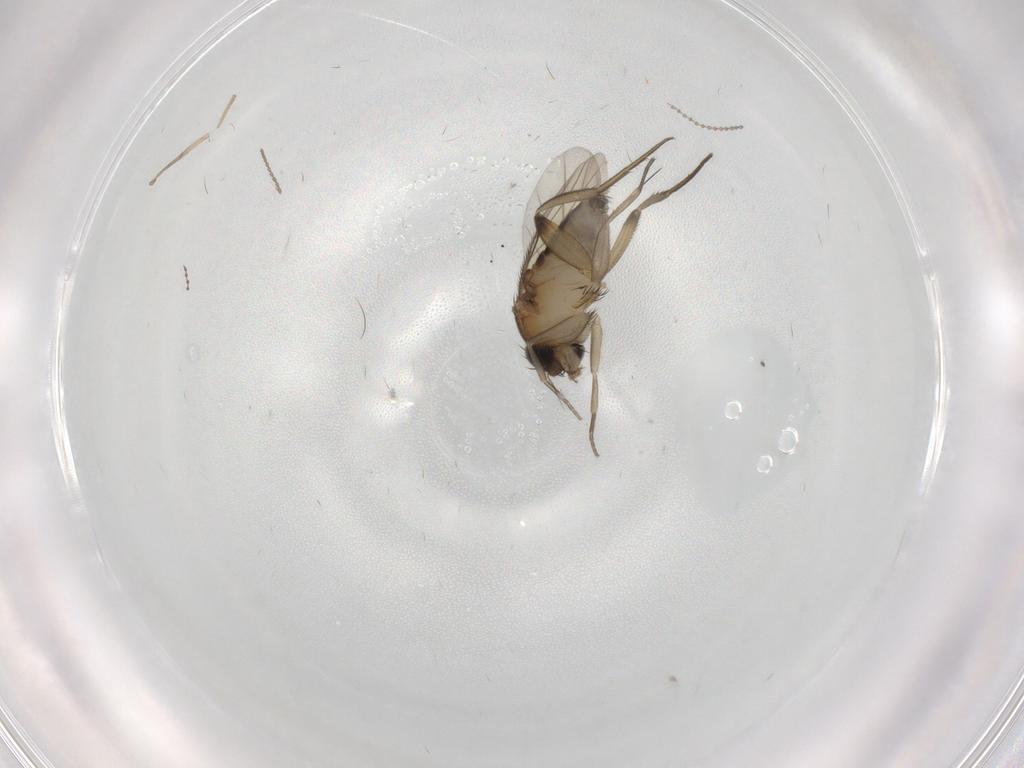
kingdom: Animalia
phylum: Arthropoda
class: Insecta
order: Diptera
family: Phoridae
